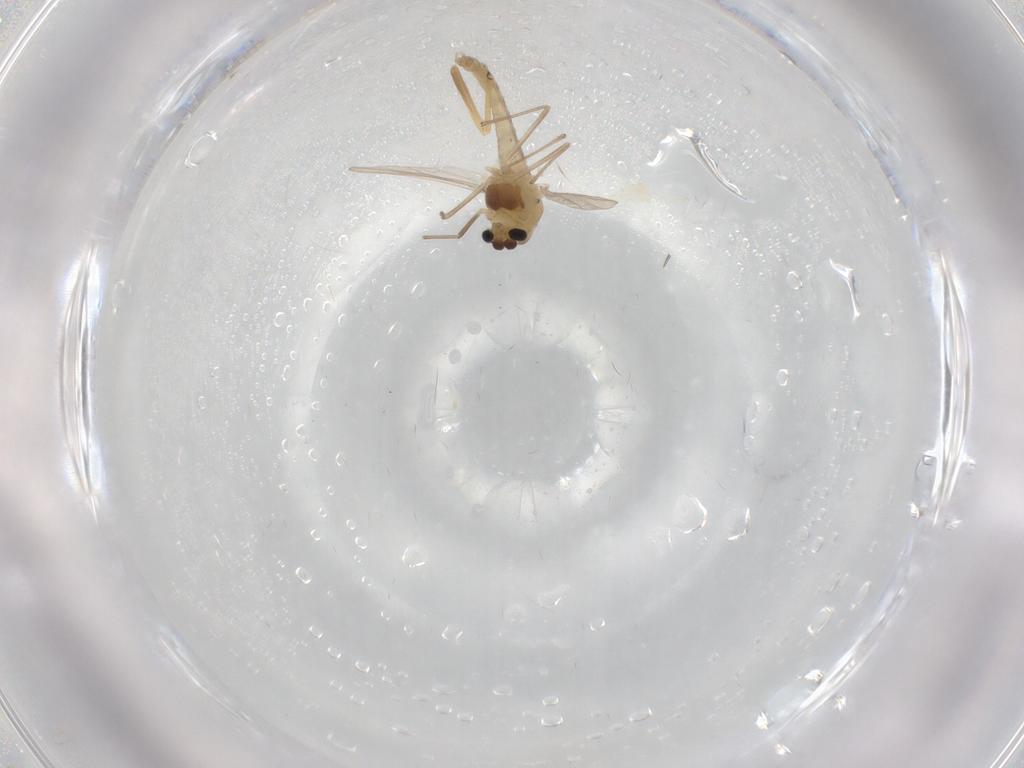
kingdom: Animalia
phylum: Arthropoda
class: Insecta
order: Diptera
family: Chironomidae
